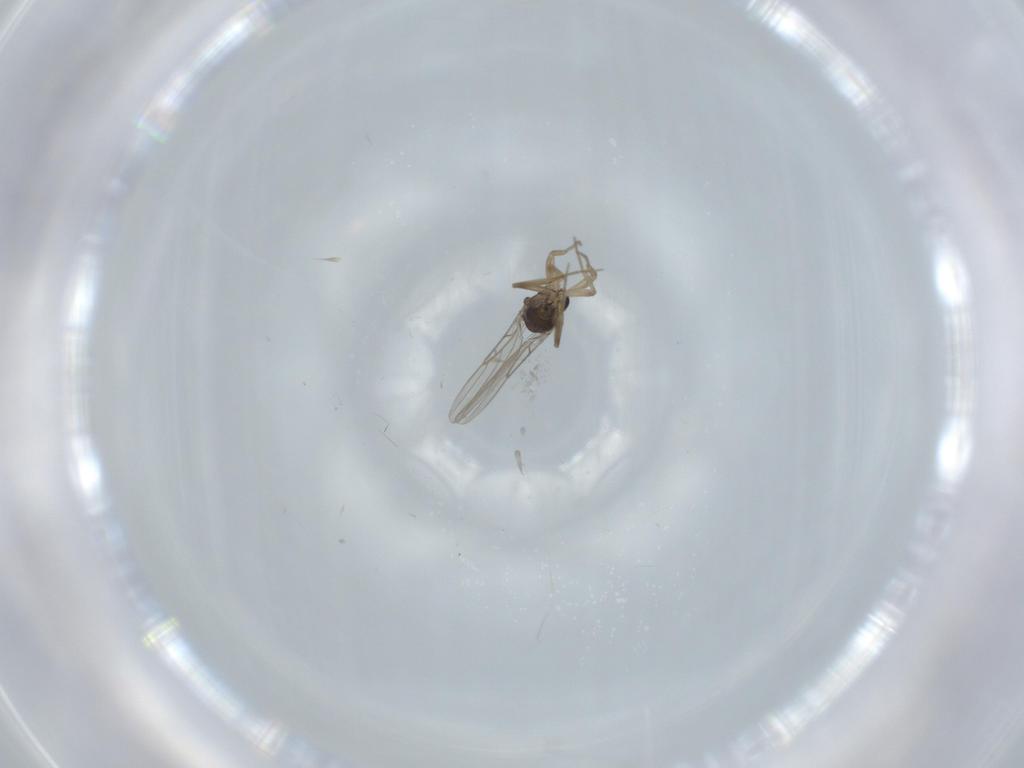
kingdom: Animalia
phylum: Arthropoda
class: Insecta
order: Diptera
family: Phoridae
